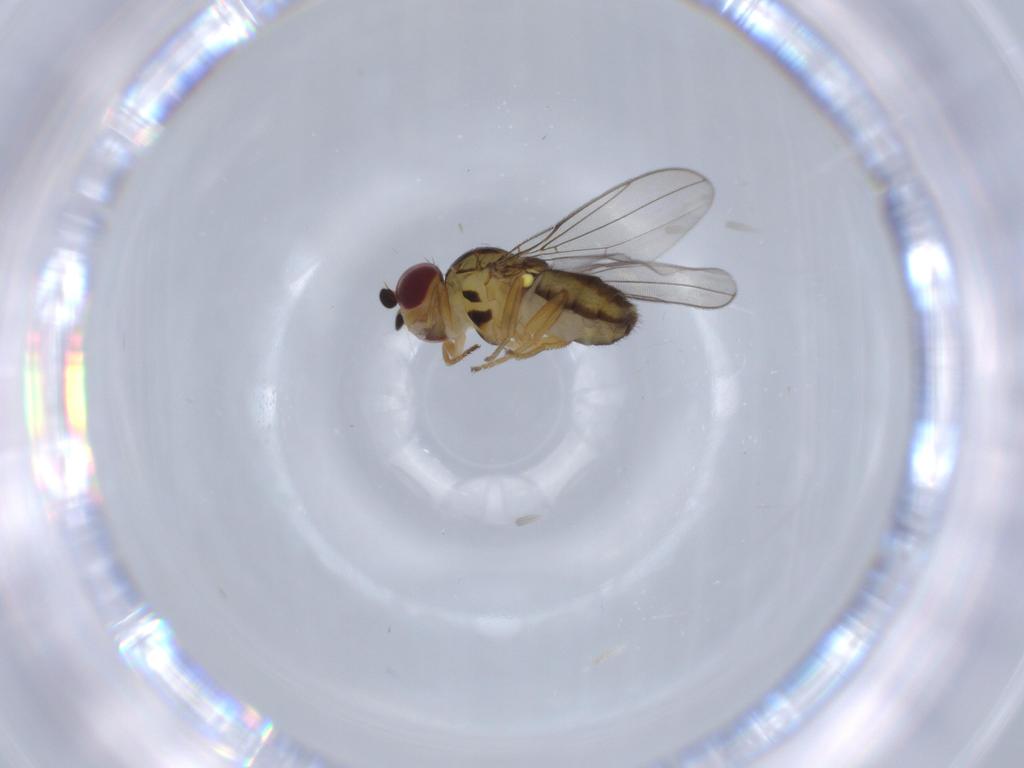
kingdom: Animalia
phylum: Arthropoda
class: Insecta
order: Diptera
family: Chloropidae
